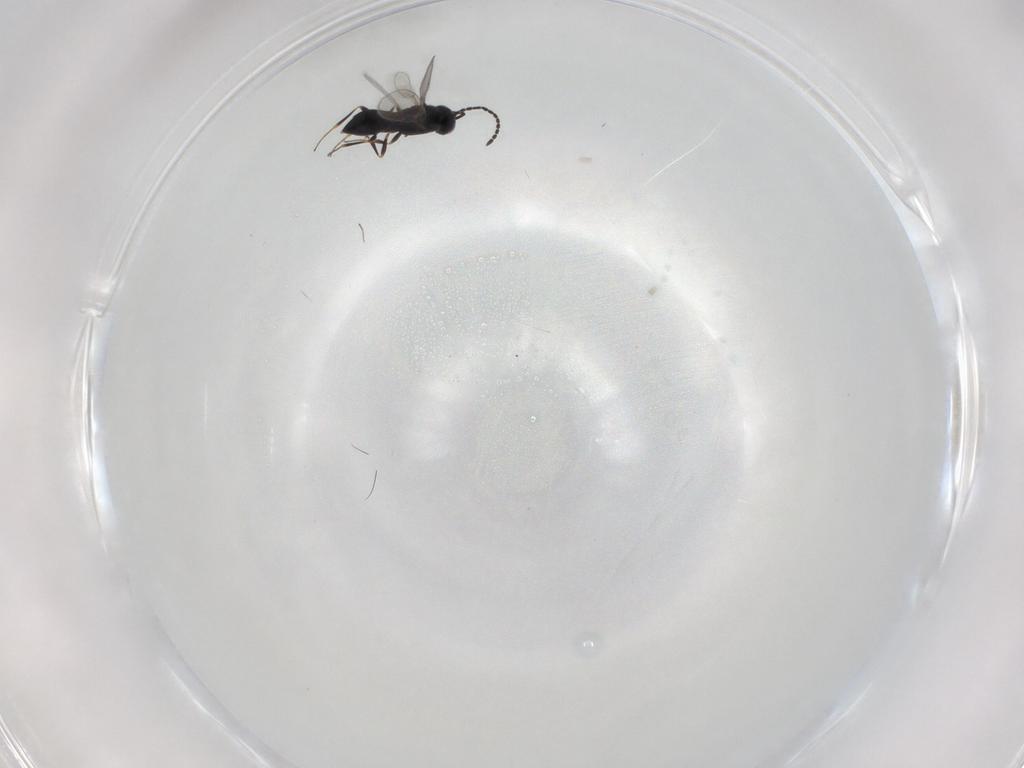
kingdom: Animalia
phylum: Arthropoda
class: Insecta
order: Hymenoptera
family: Scelionidae
